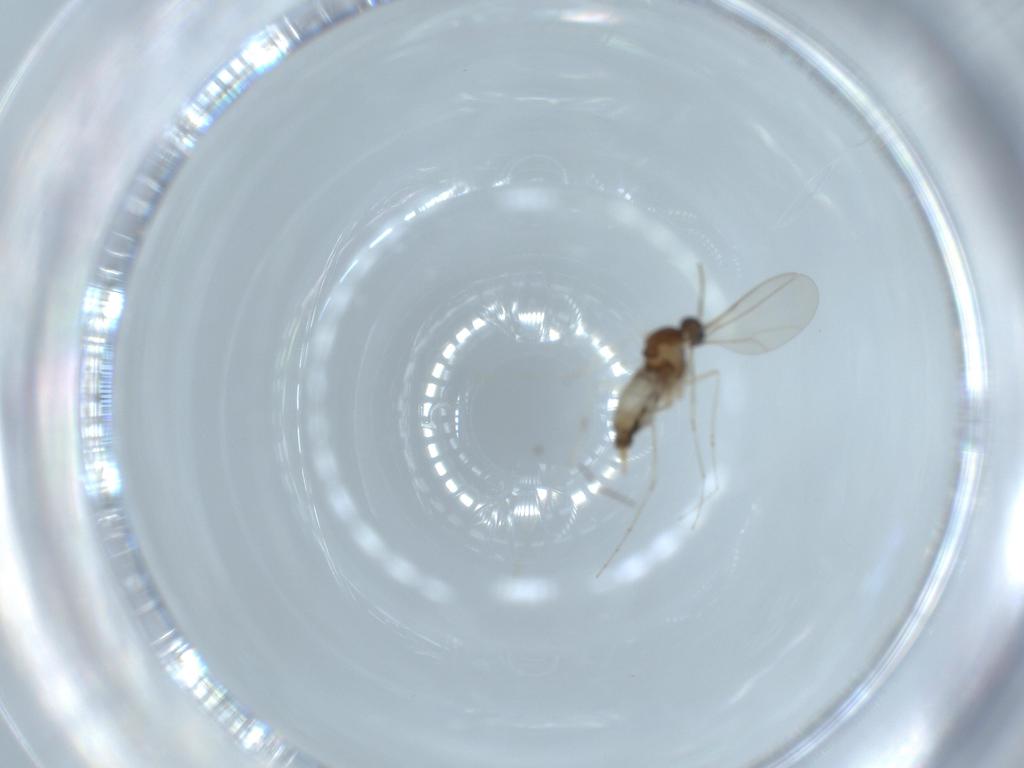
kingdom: Animalia
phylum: Arthropoda
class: Insecta
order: Diptera
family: Cecidomyiidae
